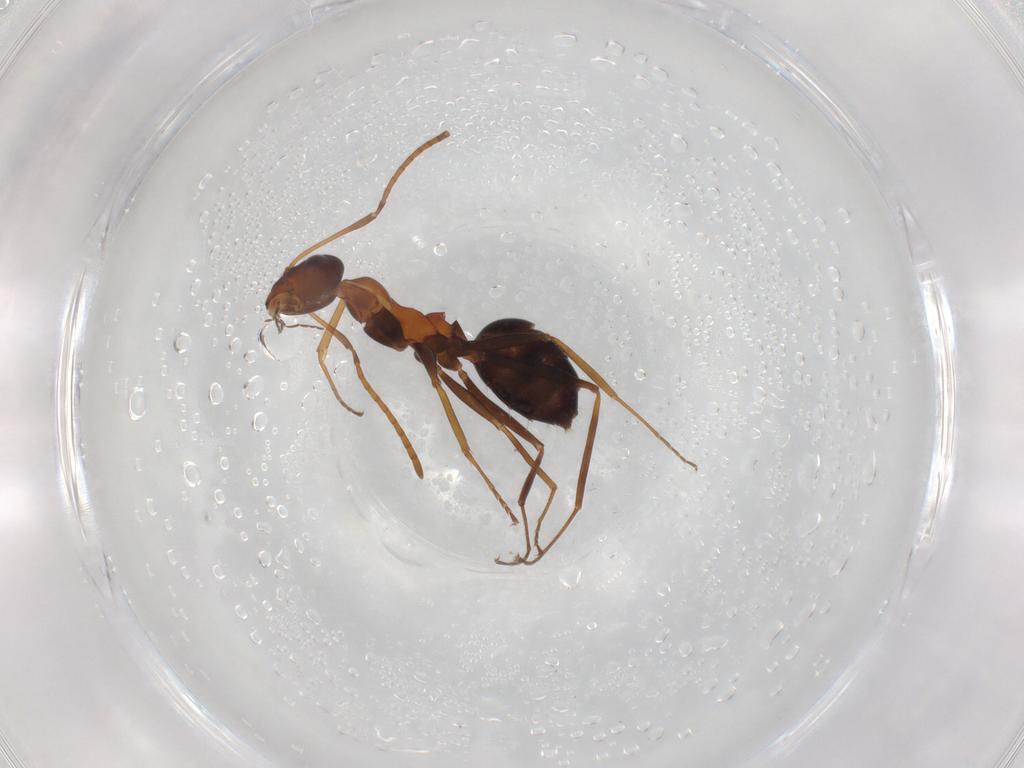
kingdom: Animalia
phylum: Arthropoda
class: Insecta
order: Hymenoptera
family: Formicidae
